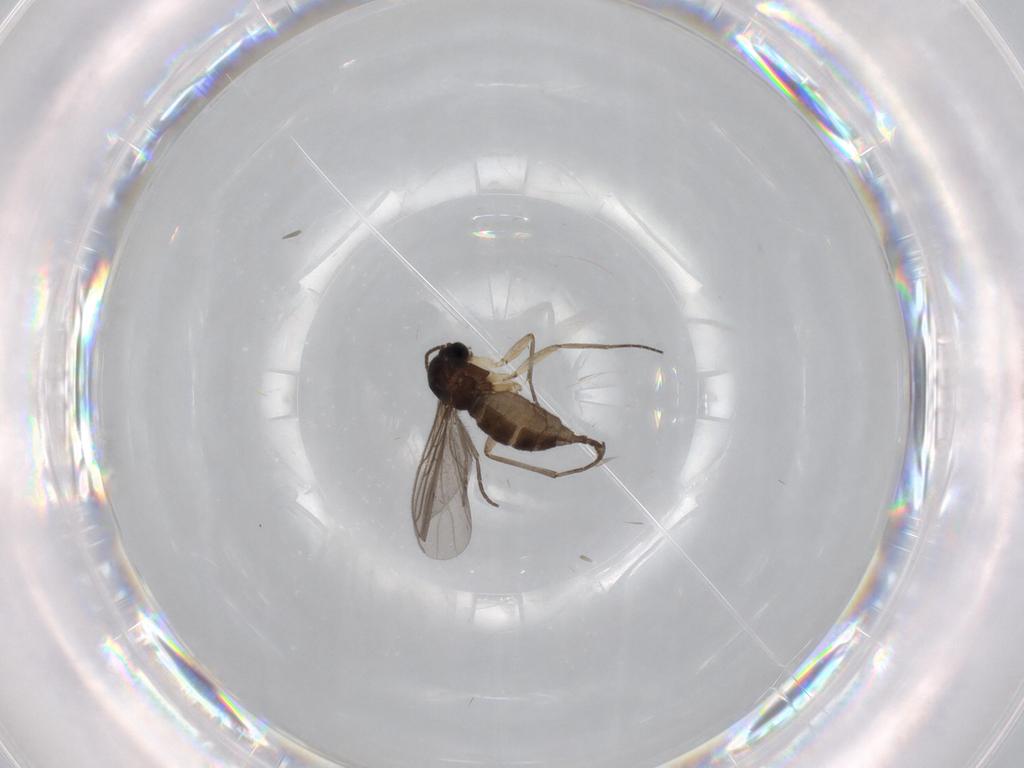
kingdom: Animalia
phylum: Arthropoda
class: Insecta
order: Diptera
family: Sciaridae
